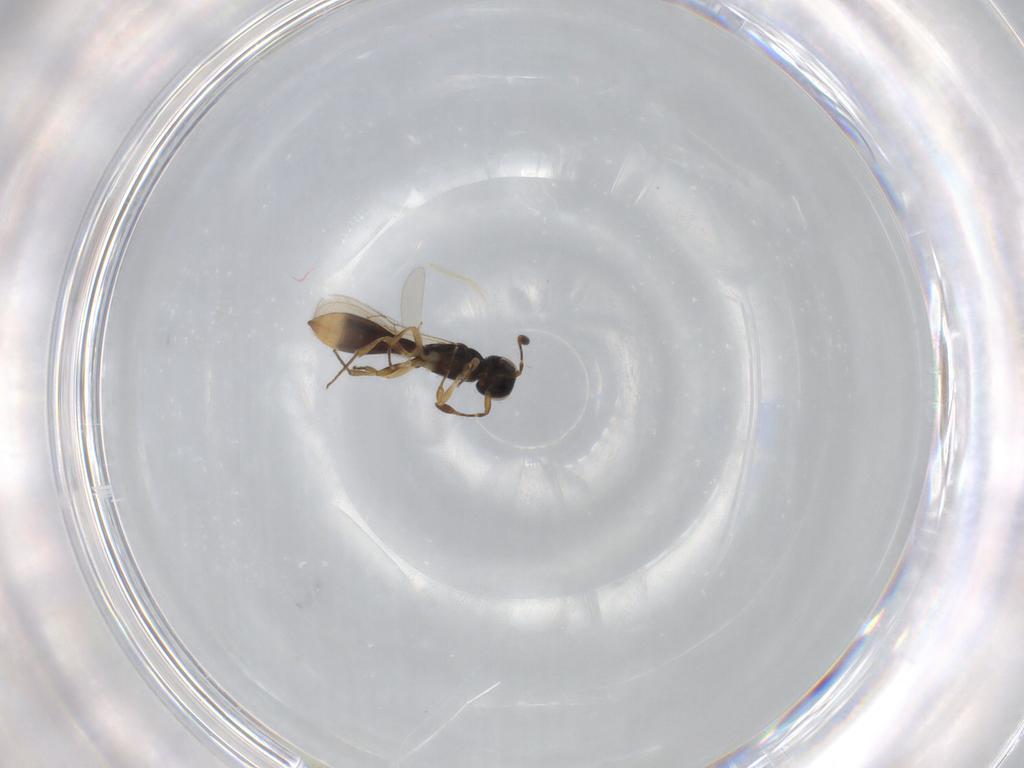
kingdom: Animalia
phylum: Arthropoda
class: Insecta
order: Hymenoptera
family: Scelionidae
